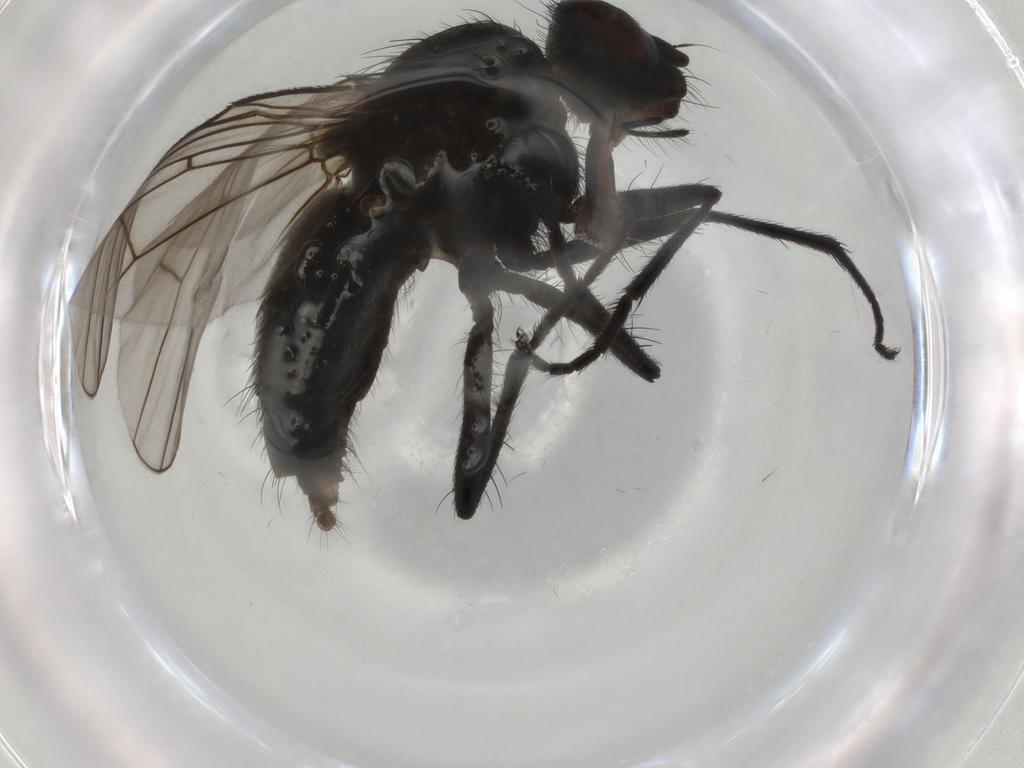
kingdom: Animalia
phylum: Arthropoda
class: Insecta
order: Diptera
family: Muscidae
